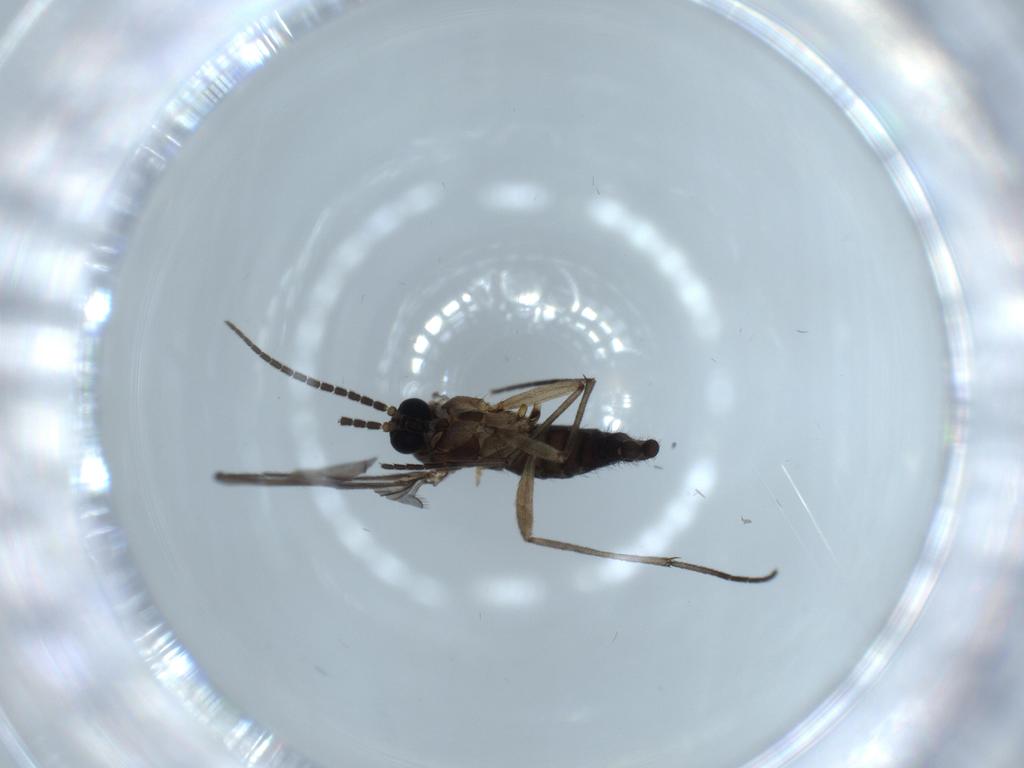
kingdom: Animalia
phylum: Arthropoda
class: Insecta
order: Diptera
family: Sciaridae
